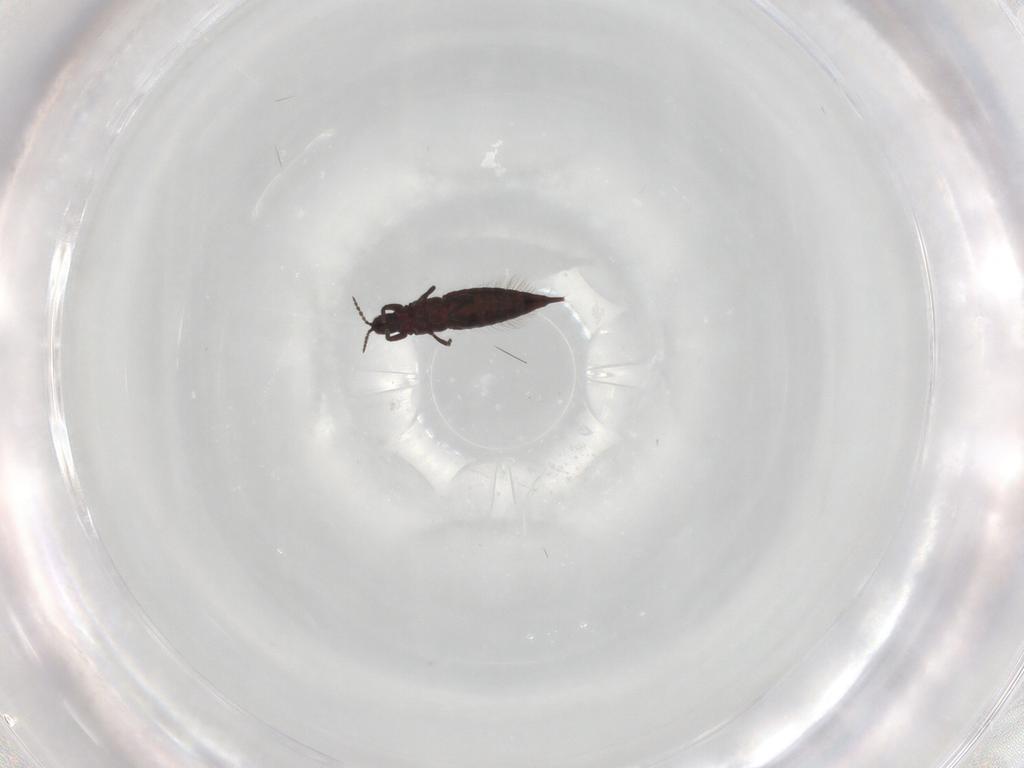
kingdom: Animalia
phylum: Arthropoda
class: Insecta
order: Thysanoptera
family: Phlaeothripidae
